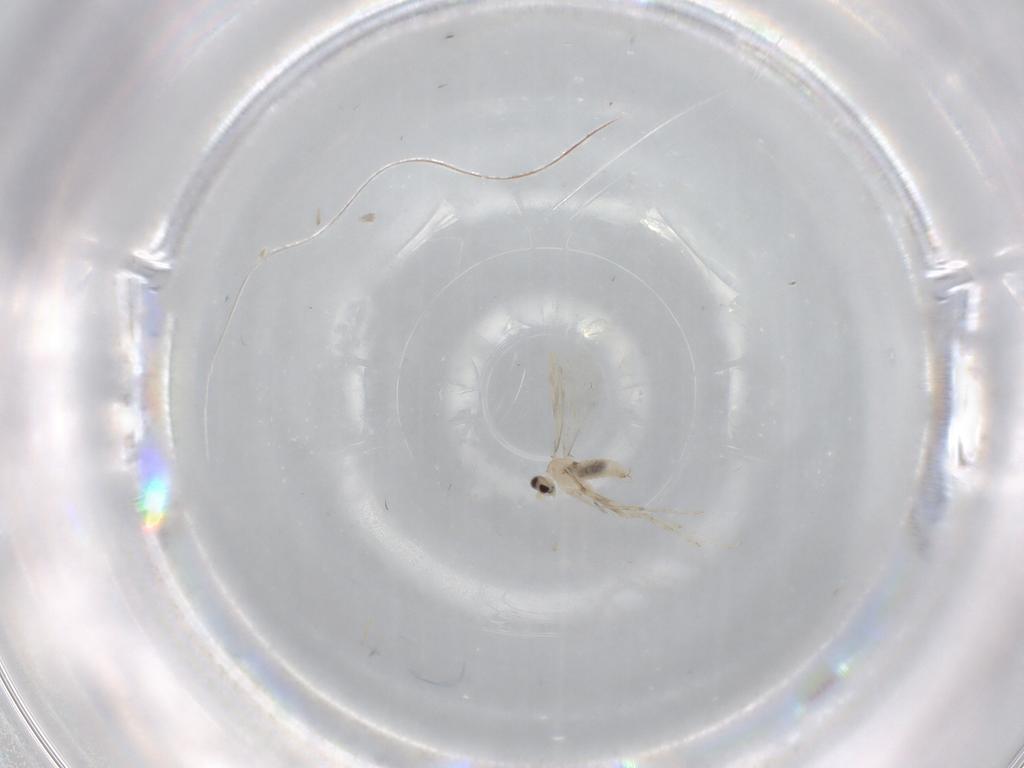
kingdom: Animalia
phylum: Arthropoda
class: Insecta
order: Diptera
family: Cecidomyiidae
